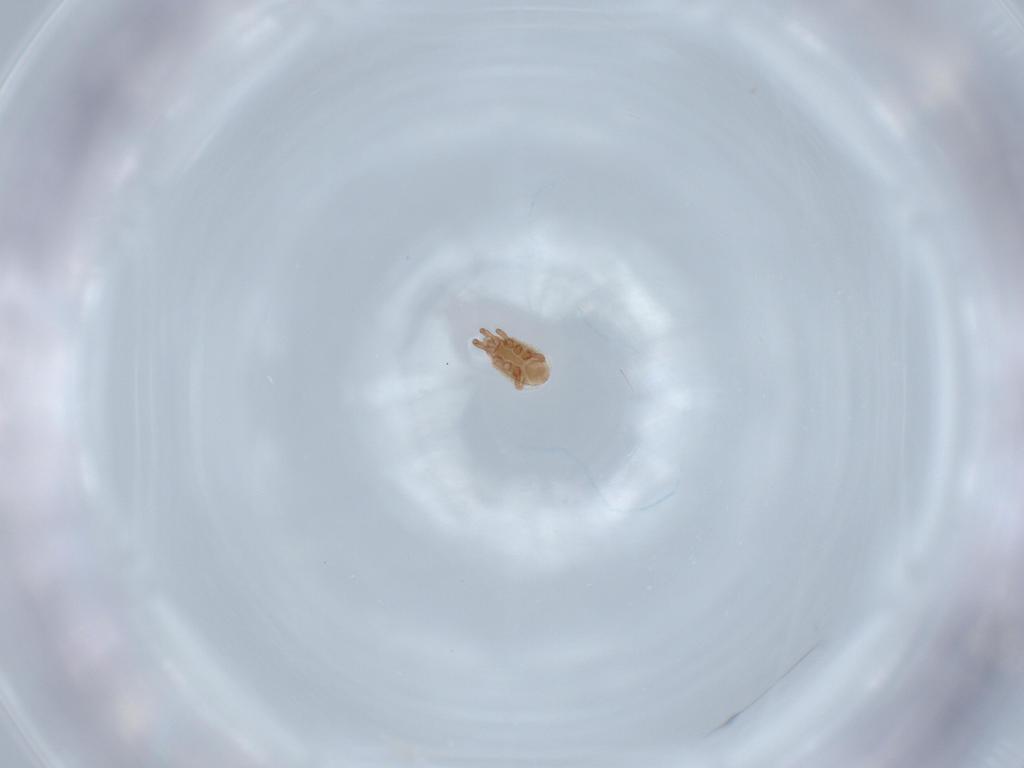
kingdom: Animalia
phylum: Arthropoda
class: Arachnida
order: Mesostigmata
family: Dinychidae
